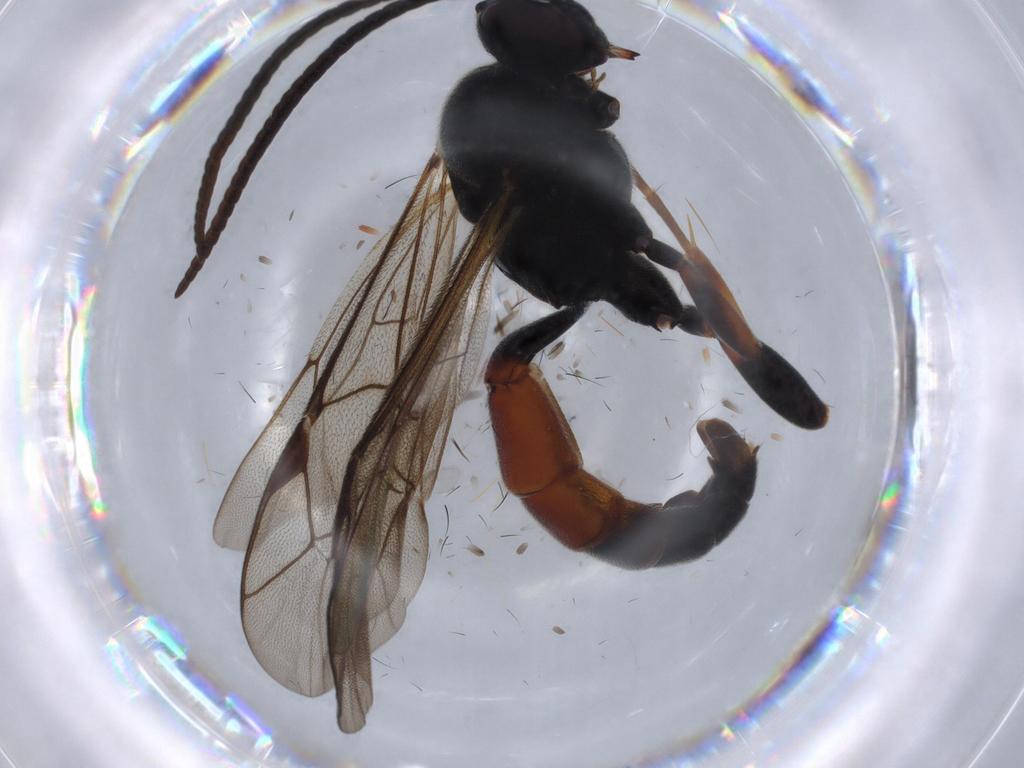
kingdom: Animalia
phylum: Arthropoda
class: Insecta
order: Hymenoptera
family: Ichneumonidae
